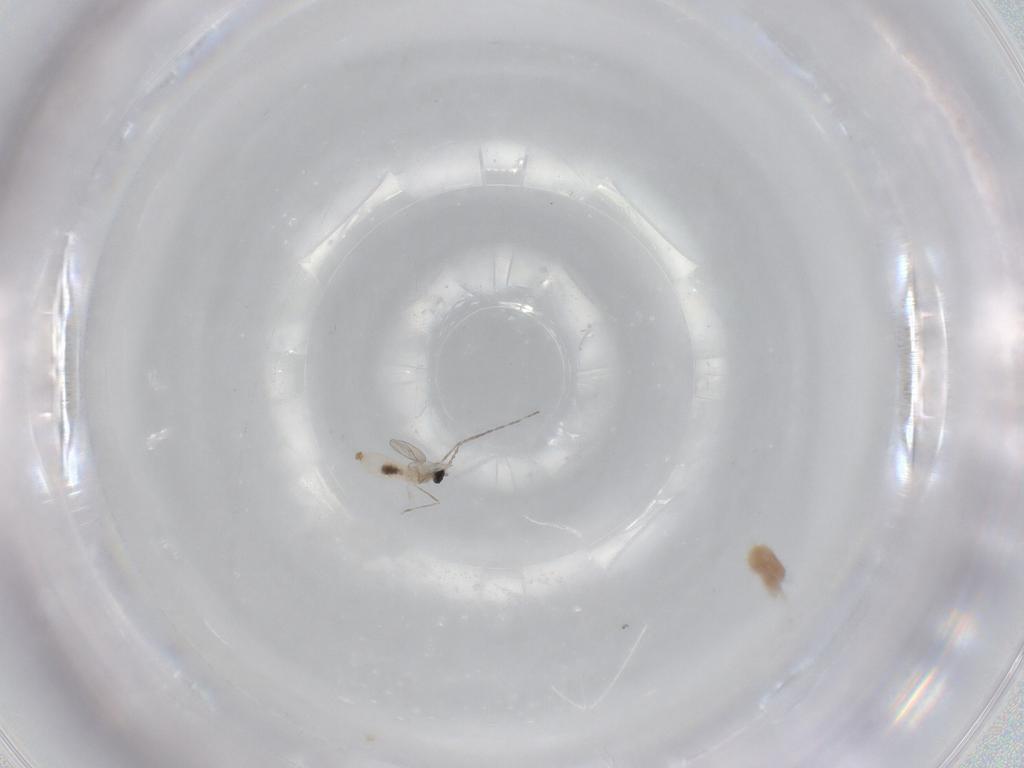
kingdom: Animalia
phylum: Arthropoda
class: Insecta
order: Diptera
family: Cecidomyiidae
